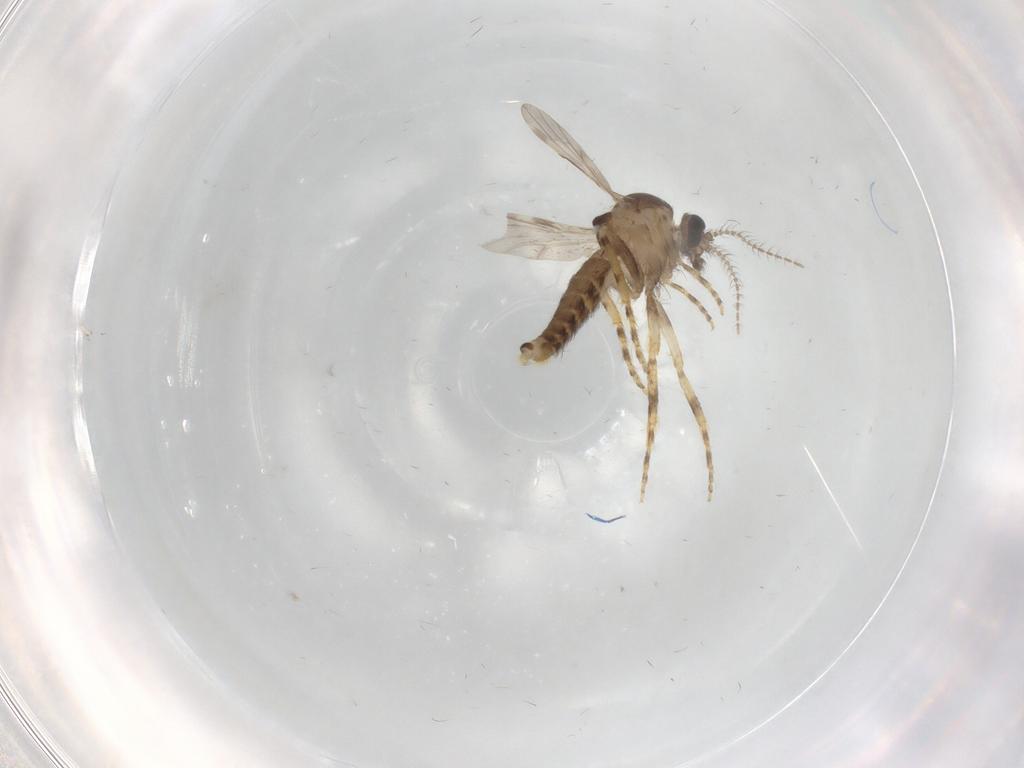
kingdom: Animalia
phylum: Arthropoda
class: Insecta
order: Diptera
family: Ceratopogonidae
